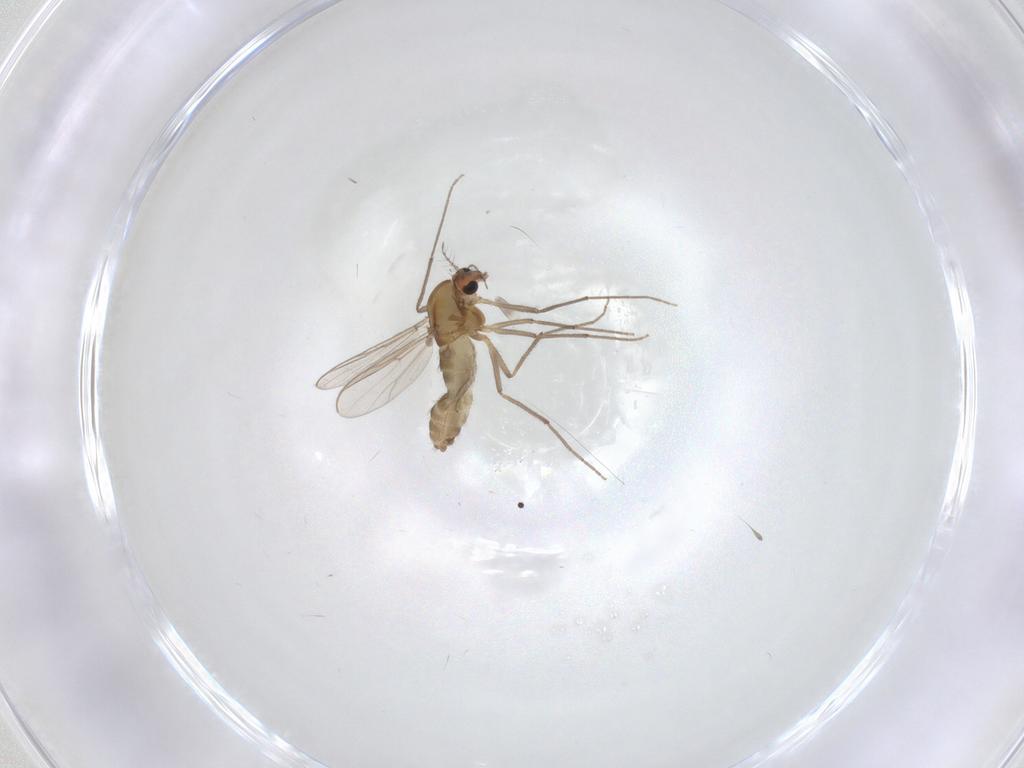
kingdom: Animalia
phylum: Arthropoda
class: Insecta
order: Diptera
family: Chironomidae
